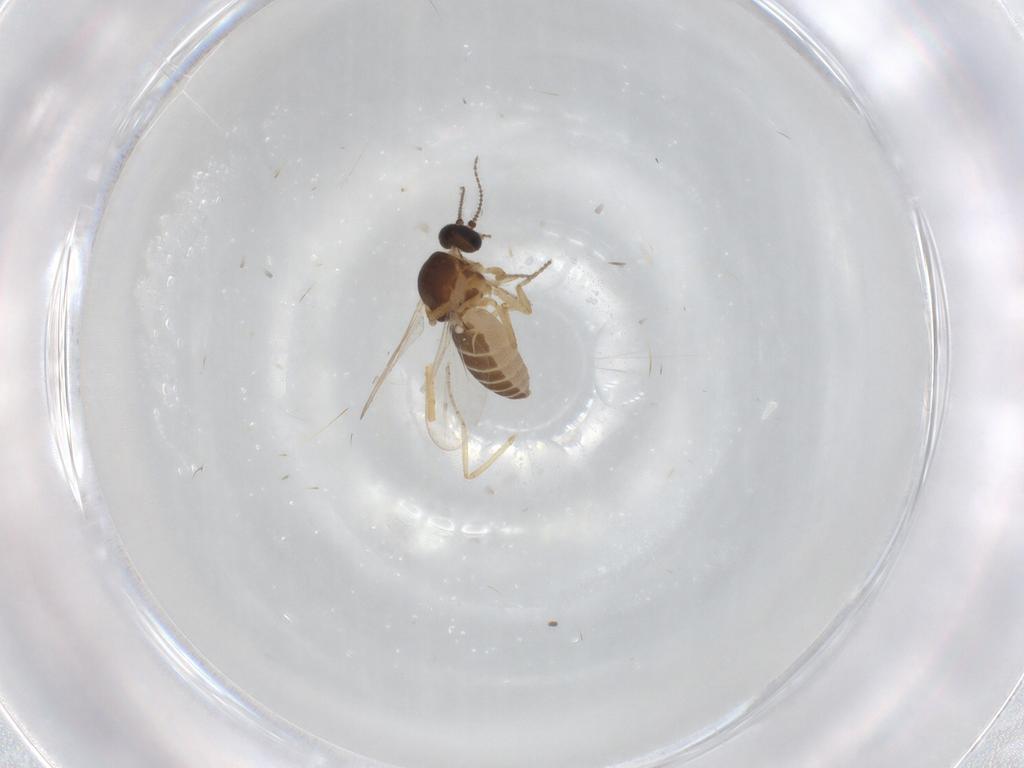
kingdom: Animalia
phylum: Arthropoda
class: Insecta
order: Diptera
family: Ceratopogonidae
